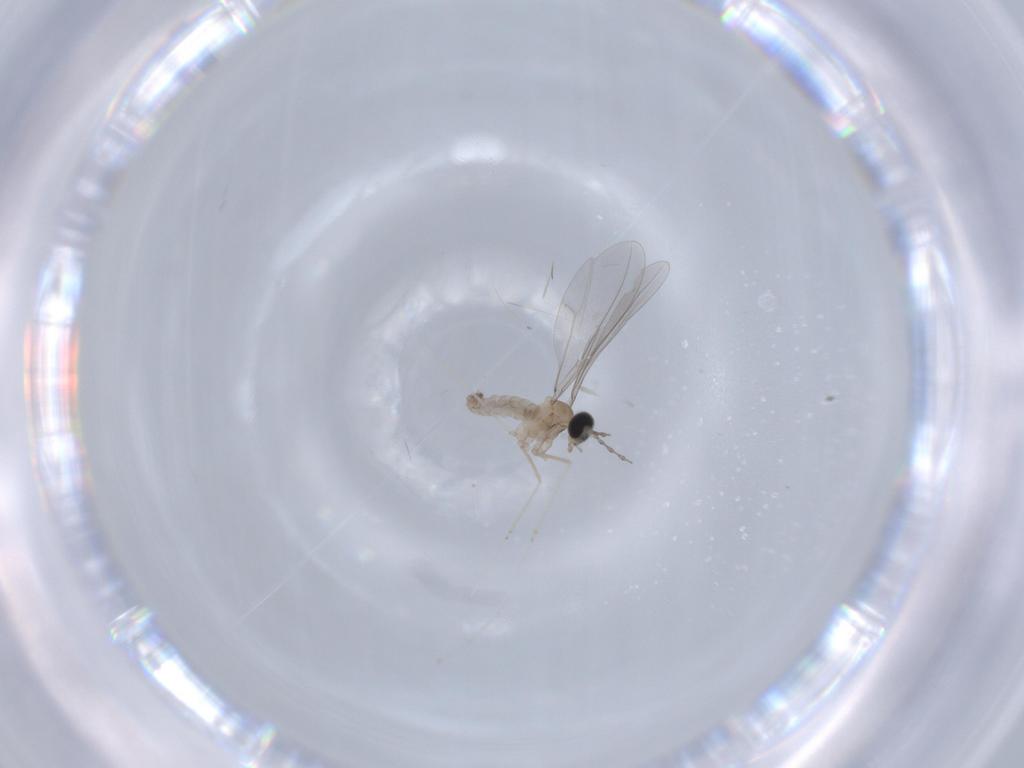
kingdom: Animalia
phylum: Arthropoda
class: Insecta
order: Diptera
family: Cecidomyiidae
